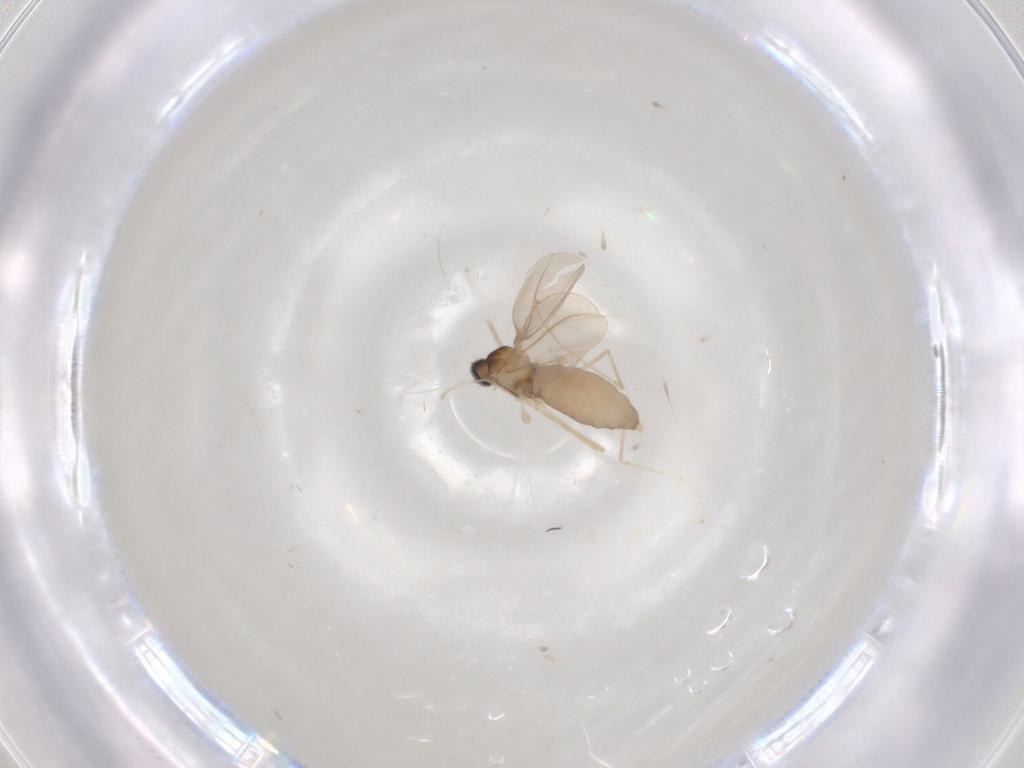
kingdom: Animalia
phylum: Arthropoda
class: Insecta
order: Diptera
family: Cecidomyiidae
